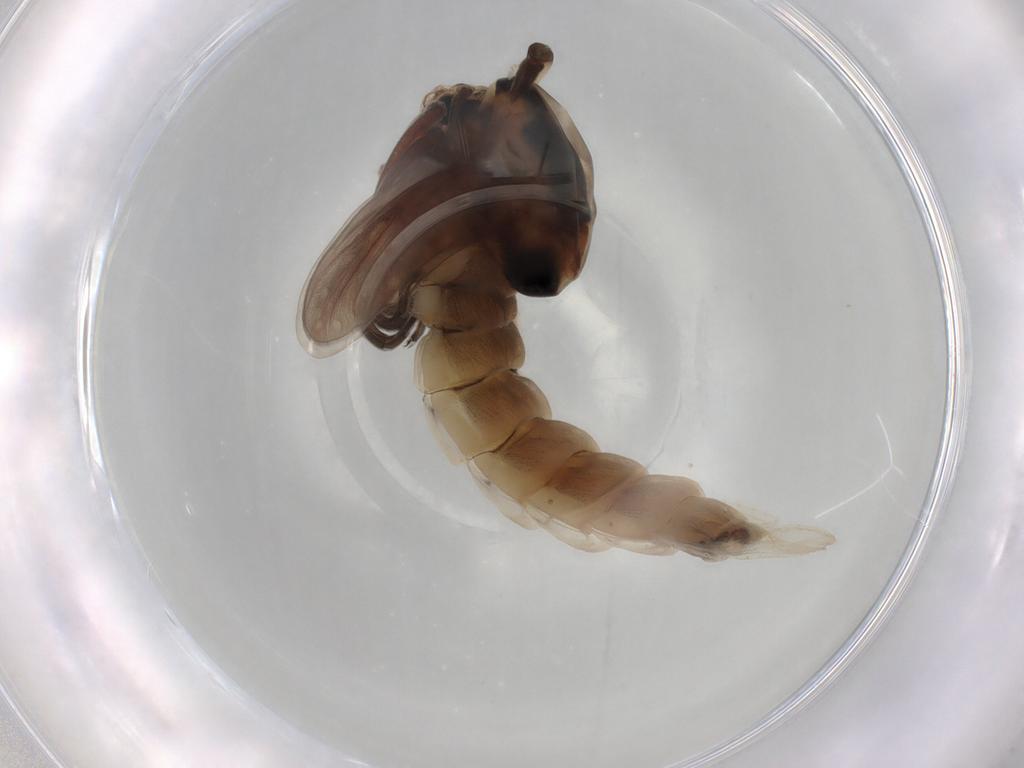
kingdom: Animalia
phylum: Arthropoda
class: Insecta
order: Diptera
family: Chironomidae
